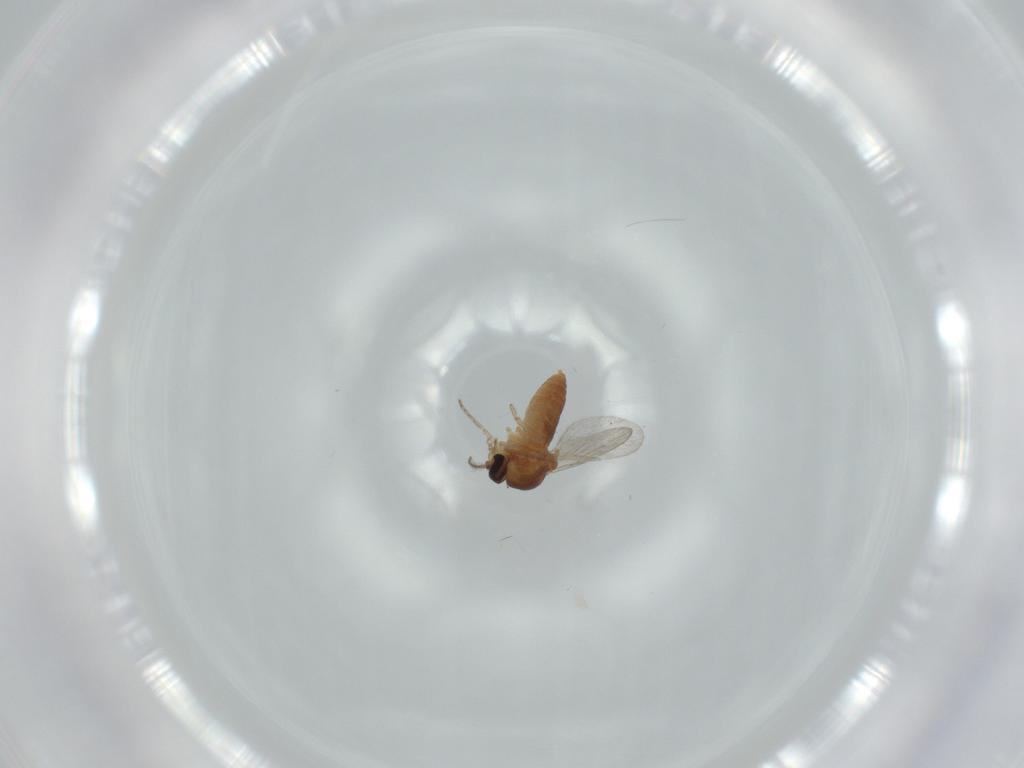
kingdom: Animalia
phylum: Arthropoda
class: Insecta
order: Diptera
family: Ceratopogonidae
